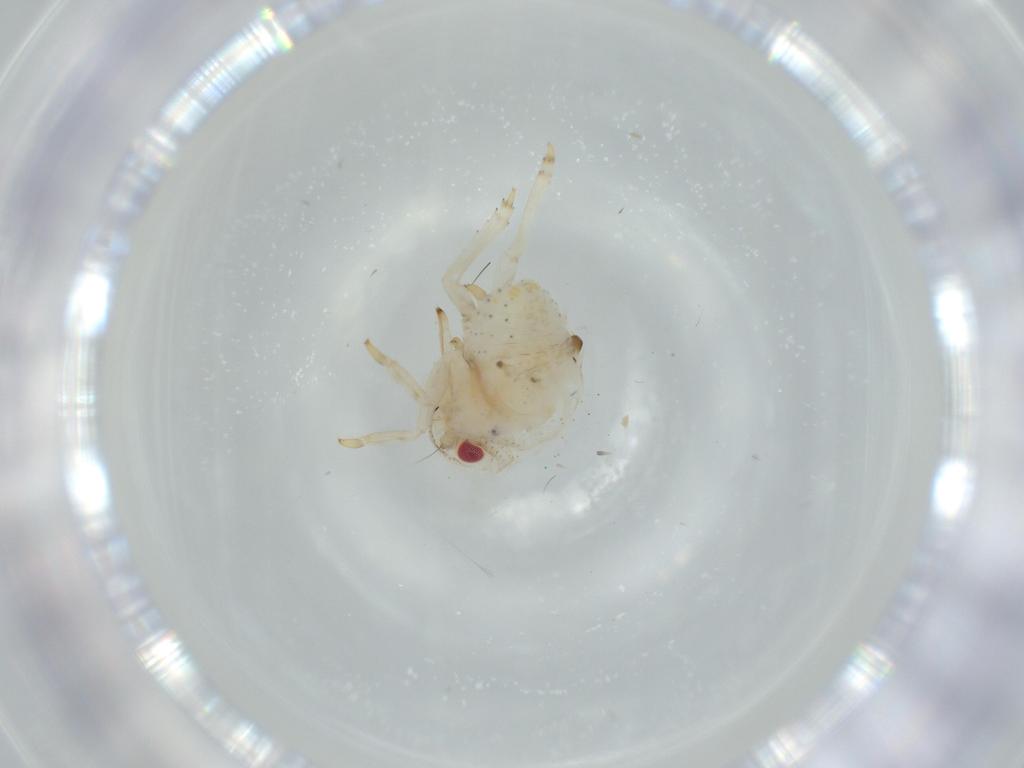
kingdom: Animalia
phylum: Arthropoda
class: Insecta
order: Hemiptera
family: Acanaloniidae
